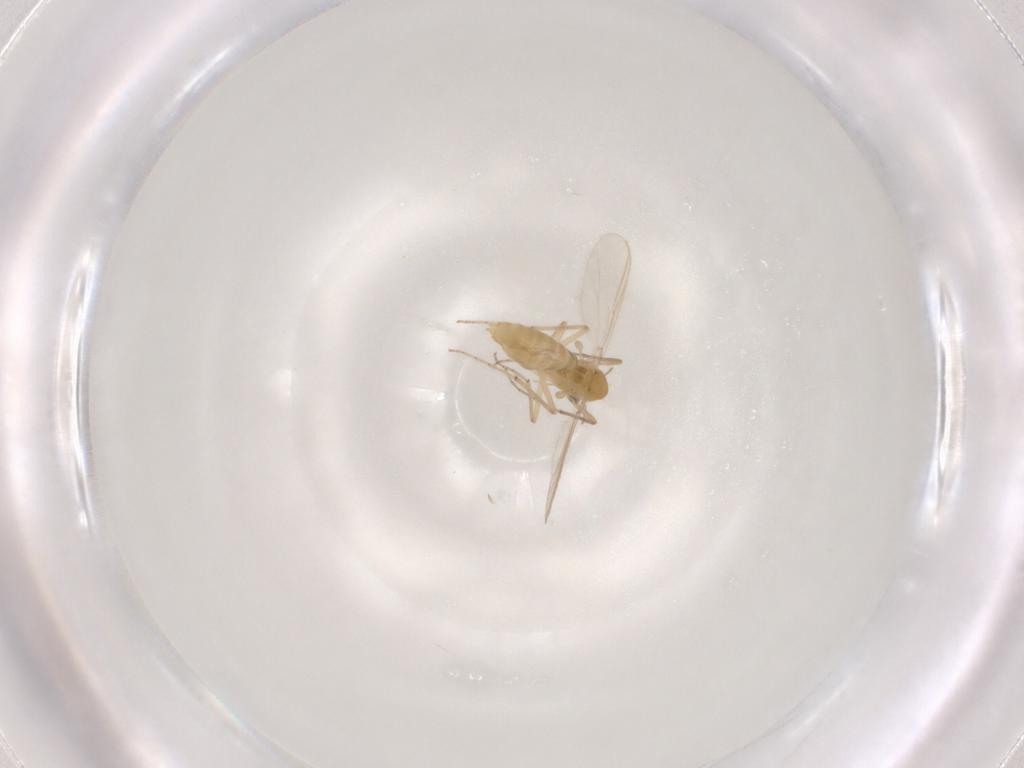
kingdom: Animalia
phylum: Arthropoda
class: Insecta
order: Diptera
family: Chironomidae
